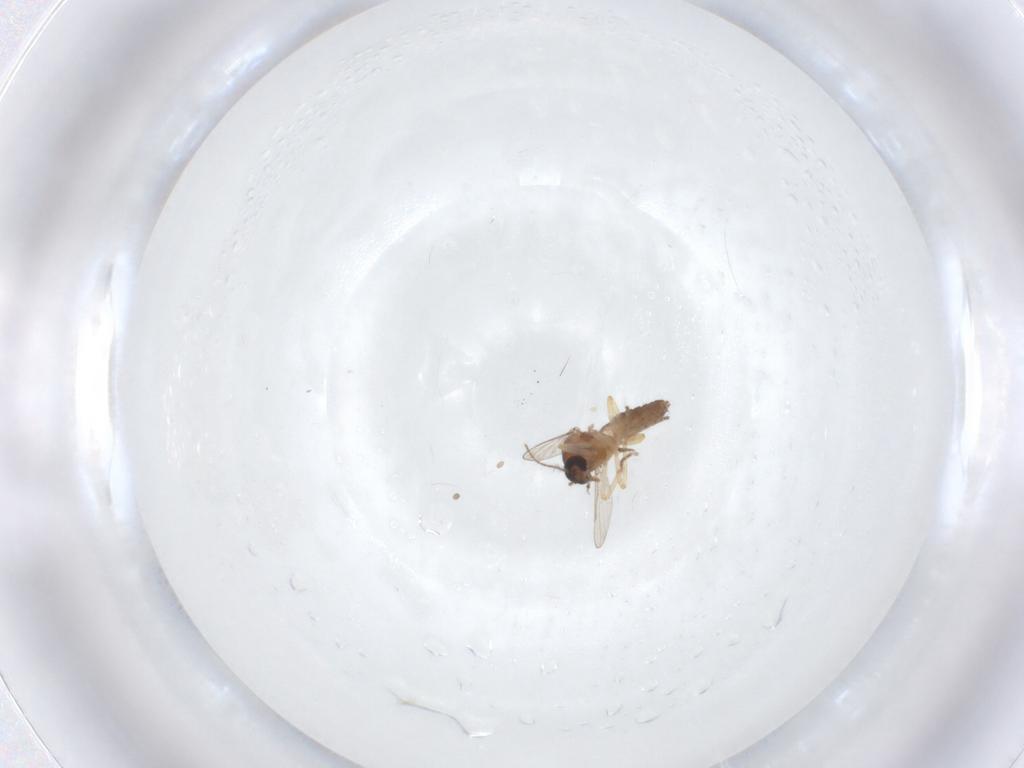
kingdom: Animalia
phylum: Arthropoda
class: Insecta
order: Diptera
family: Ceratopogonidae
